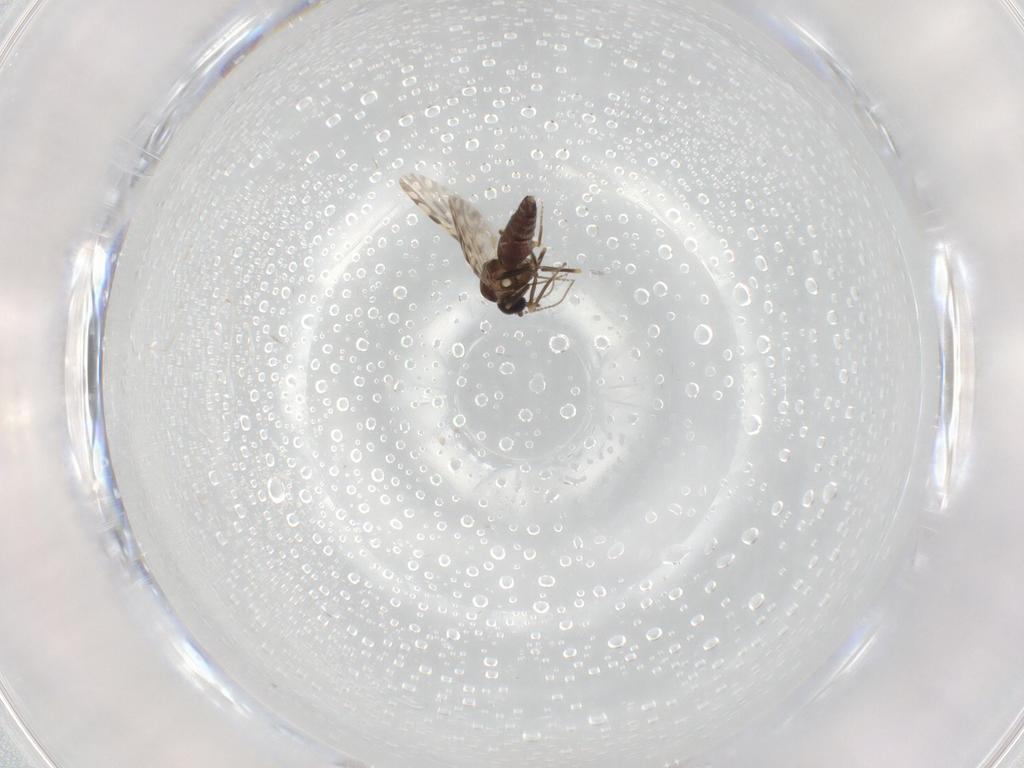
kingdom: Animalia
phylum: Arthropoda
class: Insecta
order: Diptera
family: Ceratopogonidae
